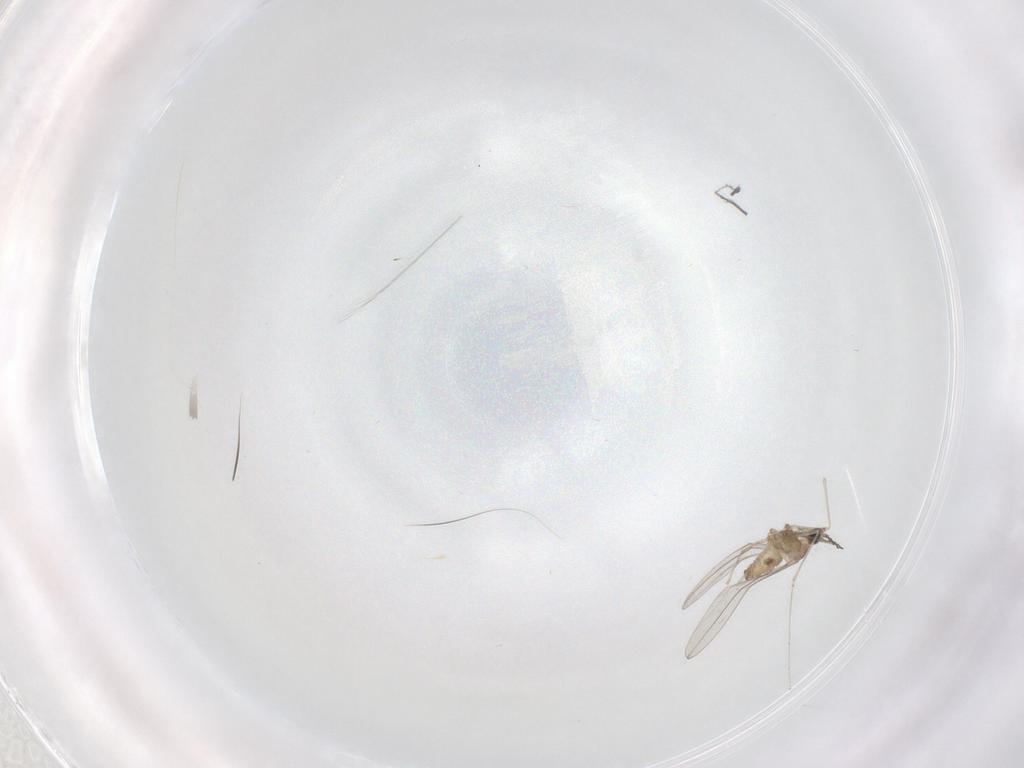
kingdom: Animalia
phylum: Arthropoda
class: Insecta
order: Diptera
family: Cecidomyiidae
